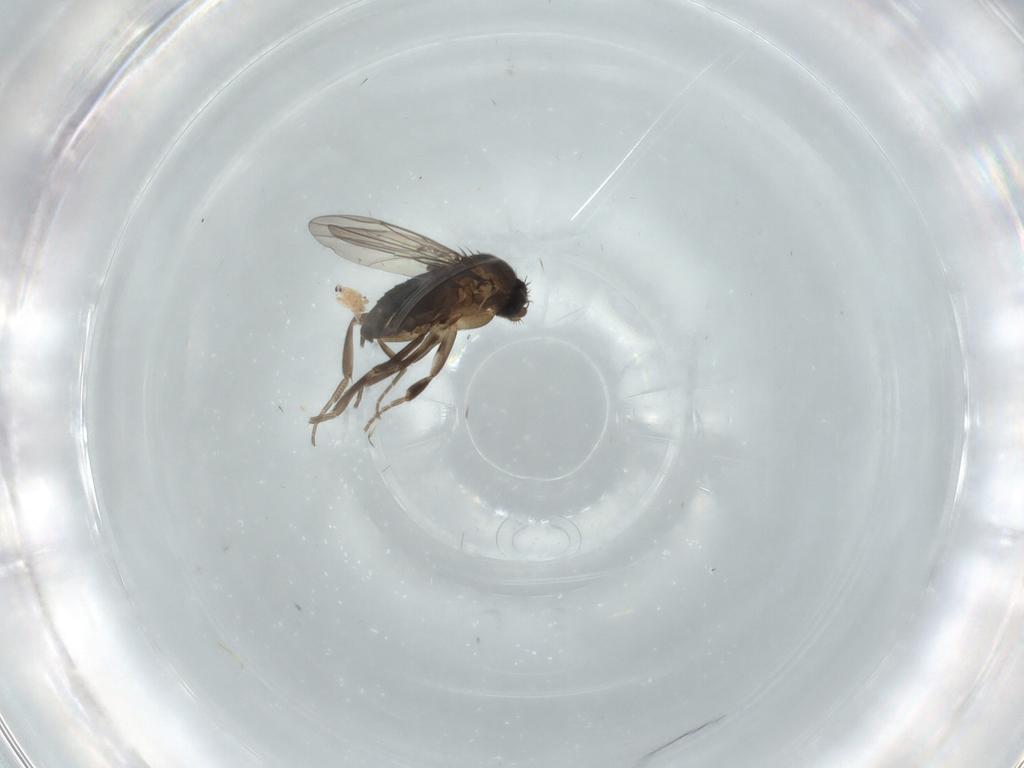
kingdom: Animalia
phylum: Arthropoda
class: Insecta
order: Diptera
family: Phoridae
